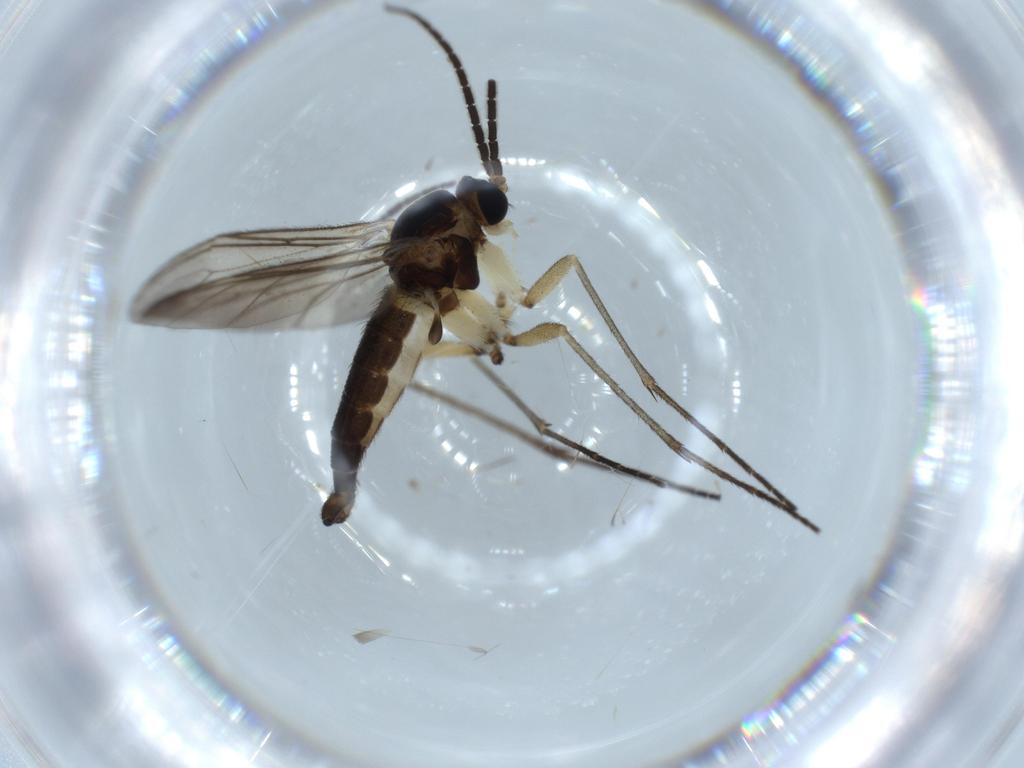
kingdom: Animalia
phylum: Arthropoda
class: Insecta
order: Diptera
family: Sciaridae
